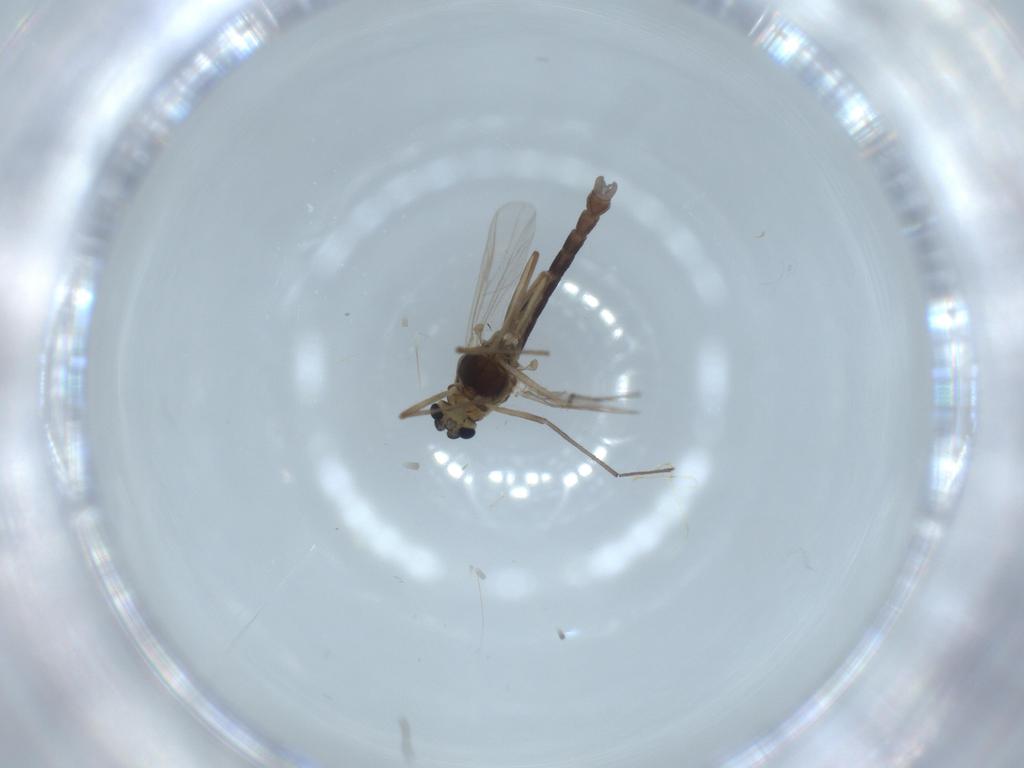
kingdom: Animalia
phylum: Arthropoda
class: Insecta
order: Diptera
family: Chironomidae
